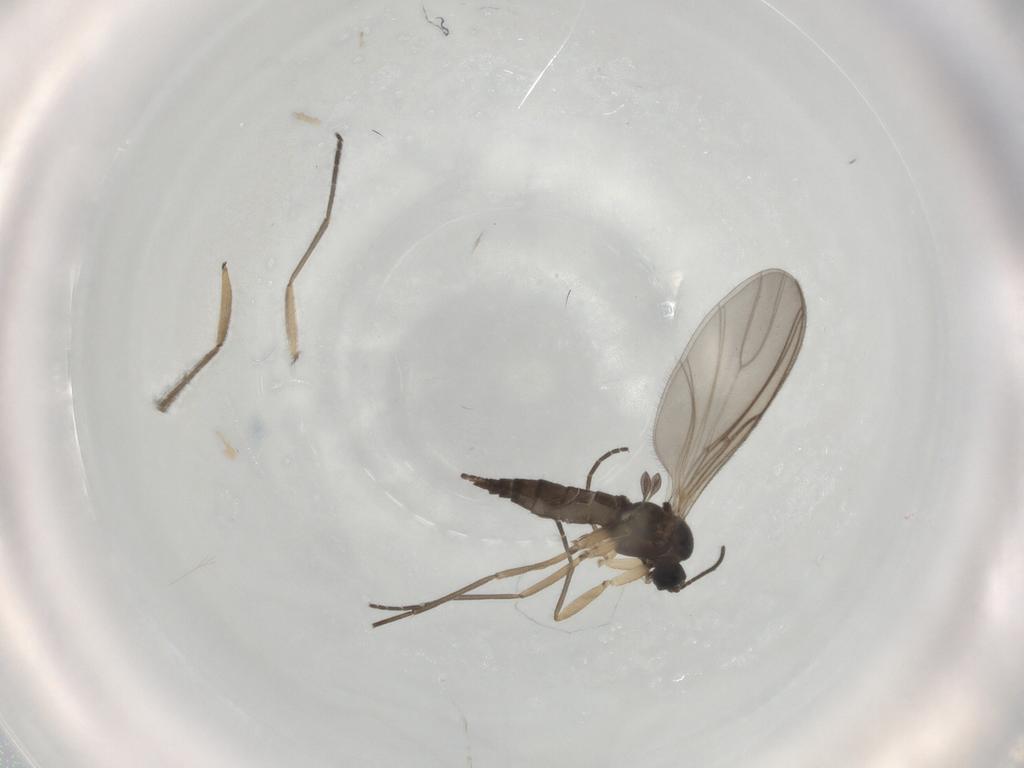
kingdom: Animalia
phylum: Arthropoda
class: Insecta
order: Diptera
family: Sciaridae
